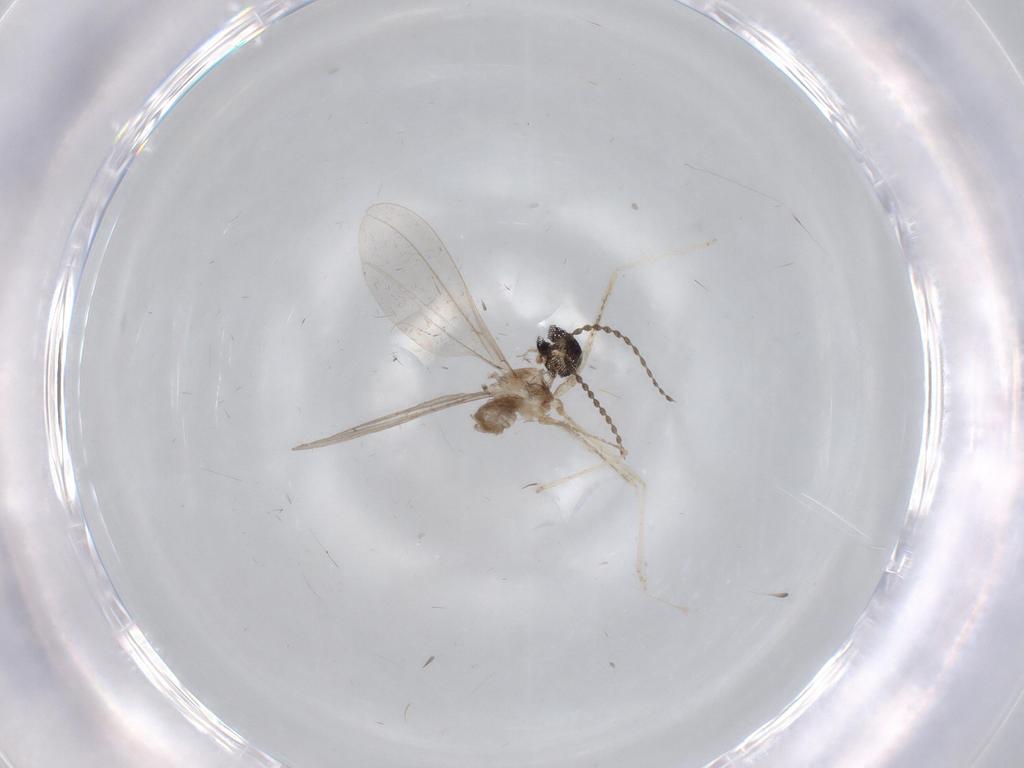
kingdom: Animalia
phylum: Arthropoda
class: Insecta
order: Diptera
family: Cecidomyiidae
